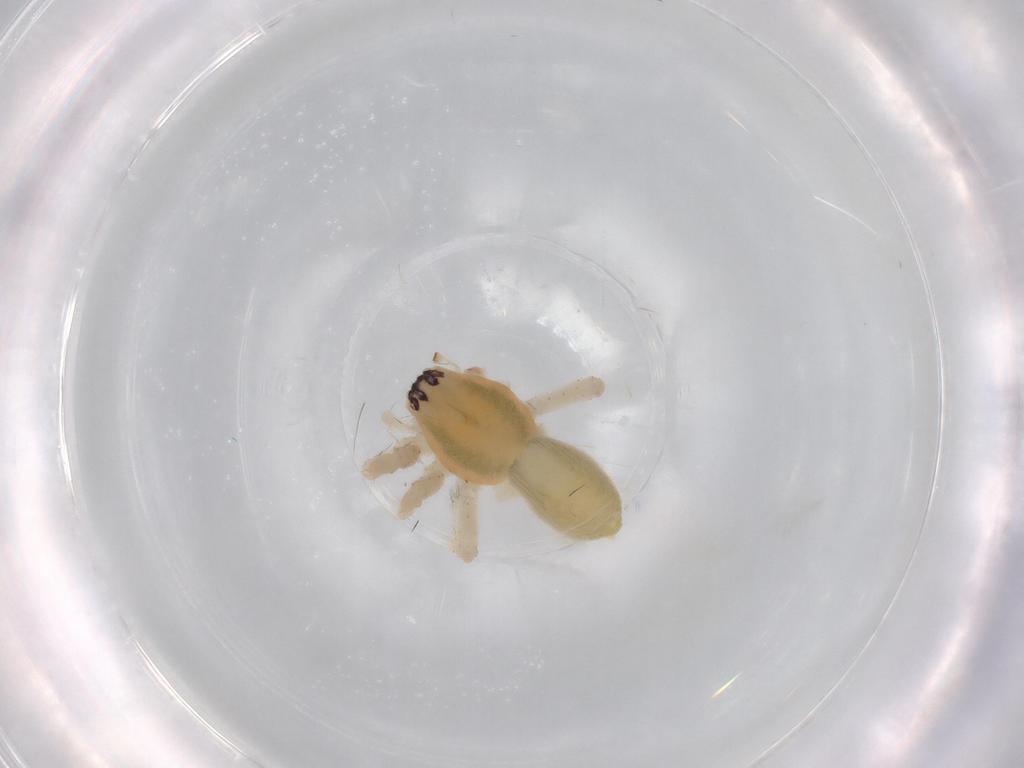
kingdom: Animalia
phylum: Arthropoda
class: Arachnida
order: Araneae
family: Anyphaenidae
